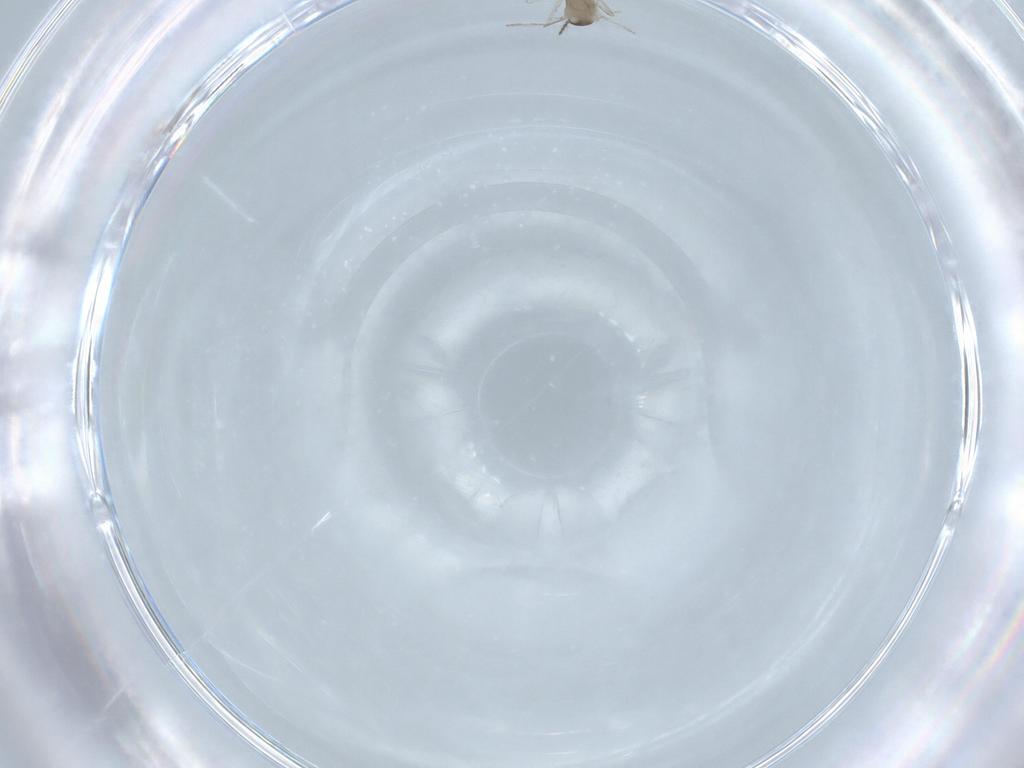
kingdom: Animalia
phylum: Arthropoda
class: Insecta
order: Diptera
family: Cecidomyiidae
